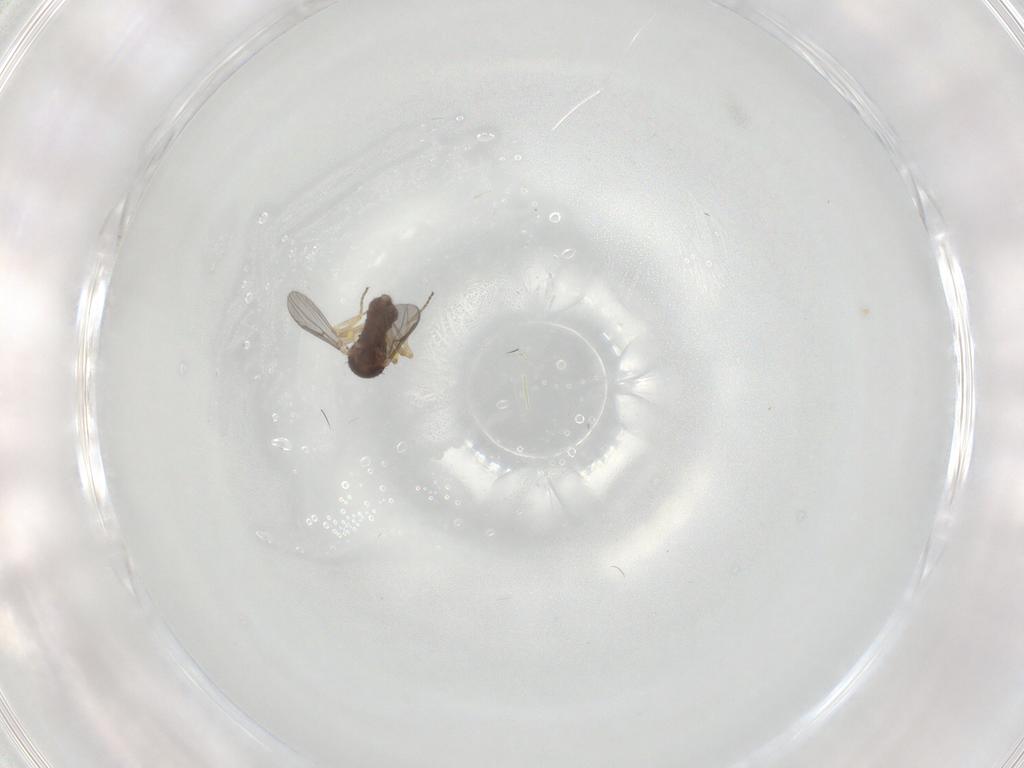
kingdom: Animalia
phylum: Arthropoda
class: Insecta
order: Diptera
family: Ceratopogonidae
